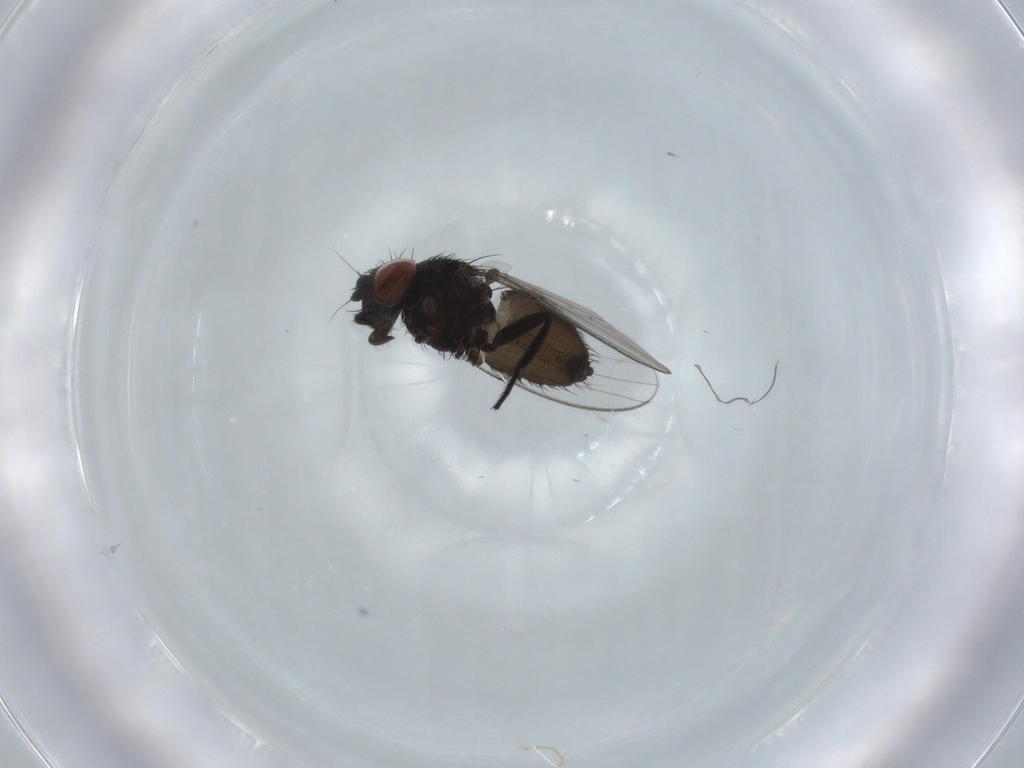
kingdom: Animalia
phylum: Arthropoda
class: Insecta
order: Diptera
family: Milichiidae
